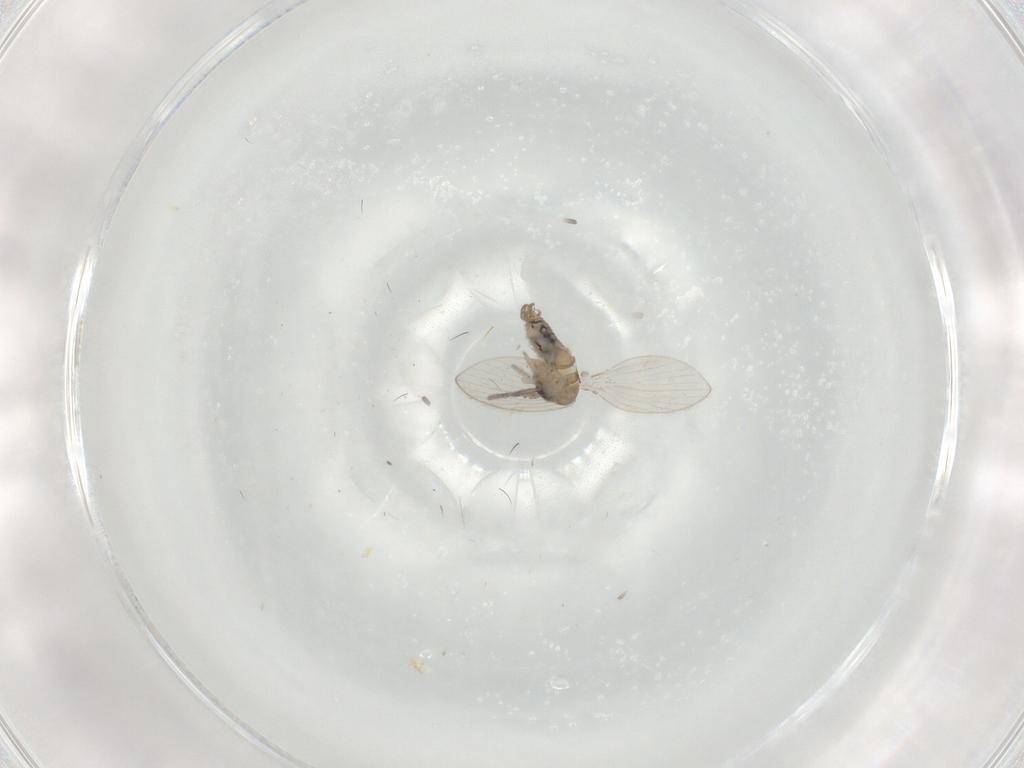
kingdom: Animalia
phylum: Arthropoda
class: Insecta
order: Diptera
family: Psychodidae
